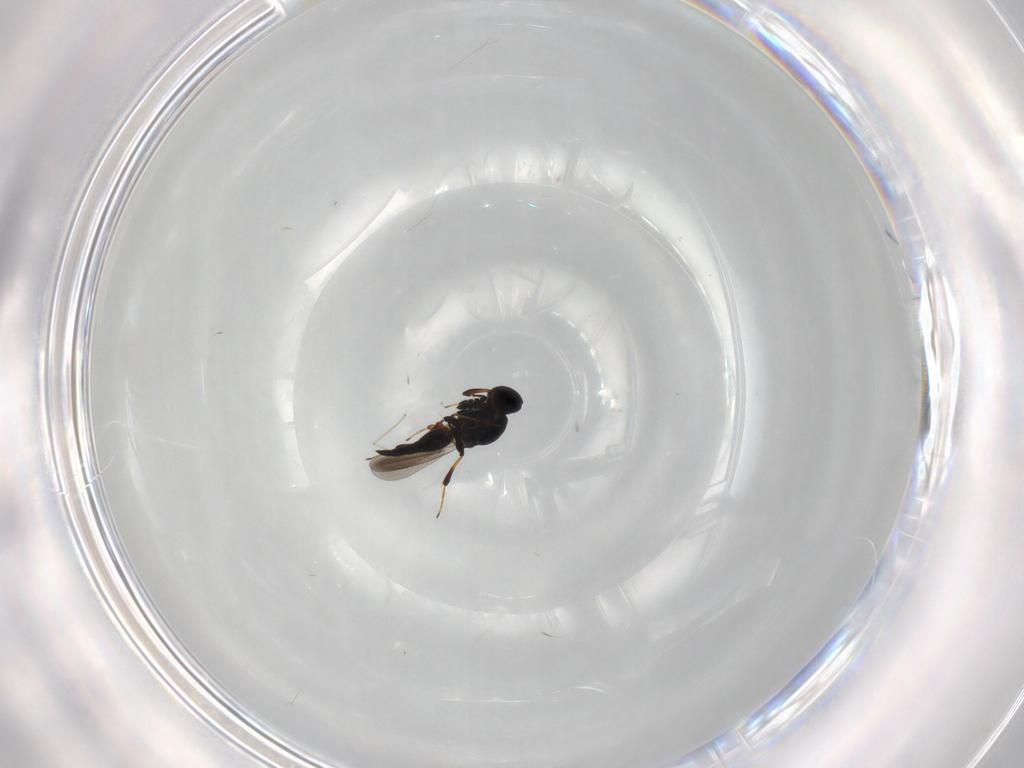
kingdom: Animalia
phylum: Arthropoda
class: Insecta
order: Hymenoptera
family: Platygastridae
